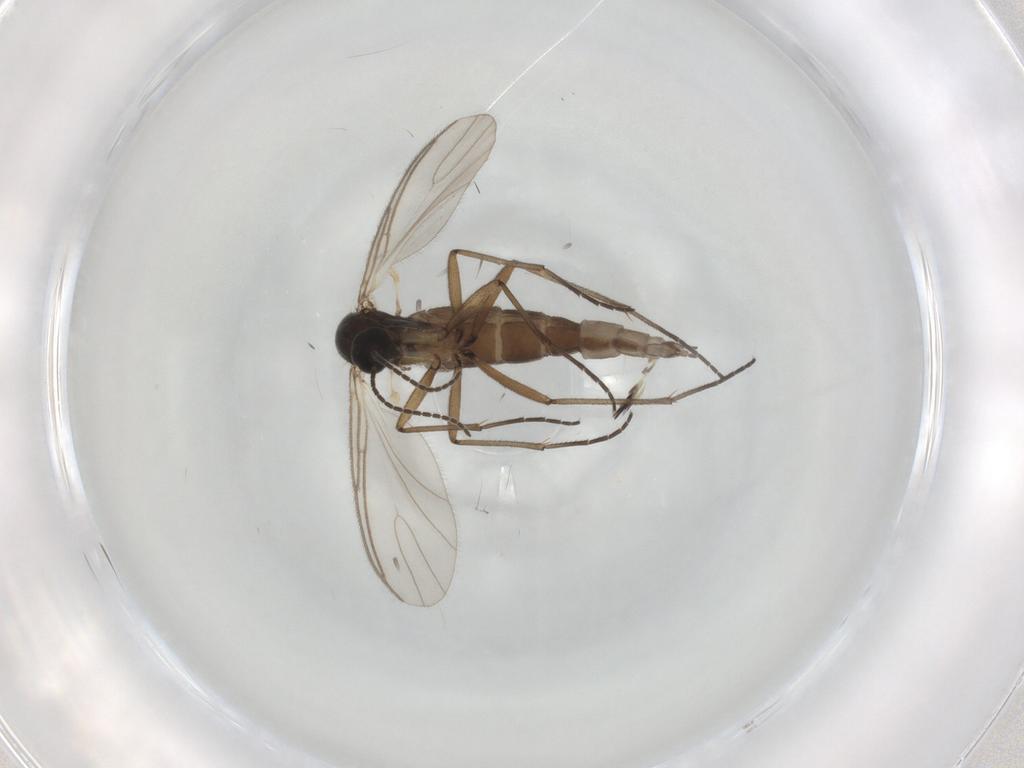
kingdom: Animalia
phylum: Arthropoda
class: Insecta
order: Diptera
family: Sciaridae
